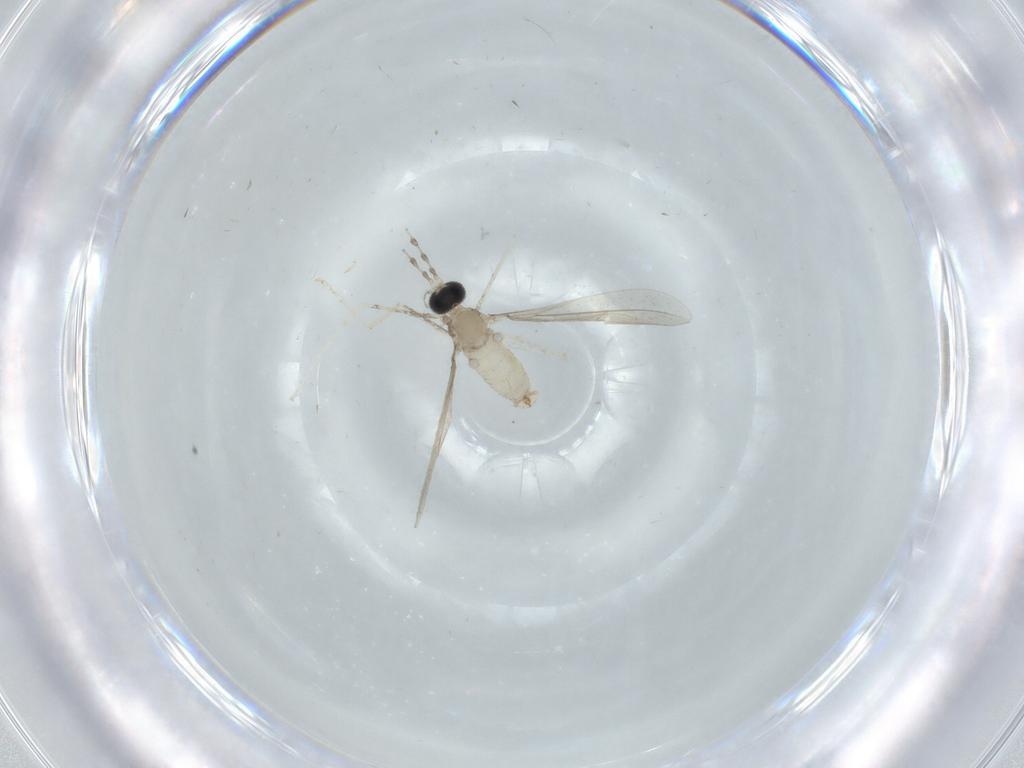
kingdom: Animalia
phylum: Arthropoda
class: Insecta
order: Diptera
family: Cecidomyiidae
